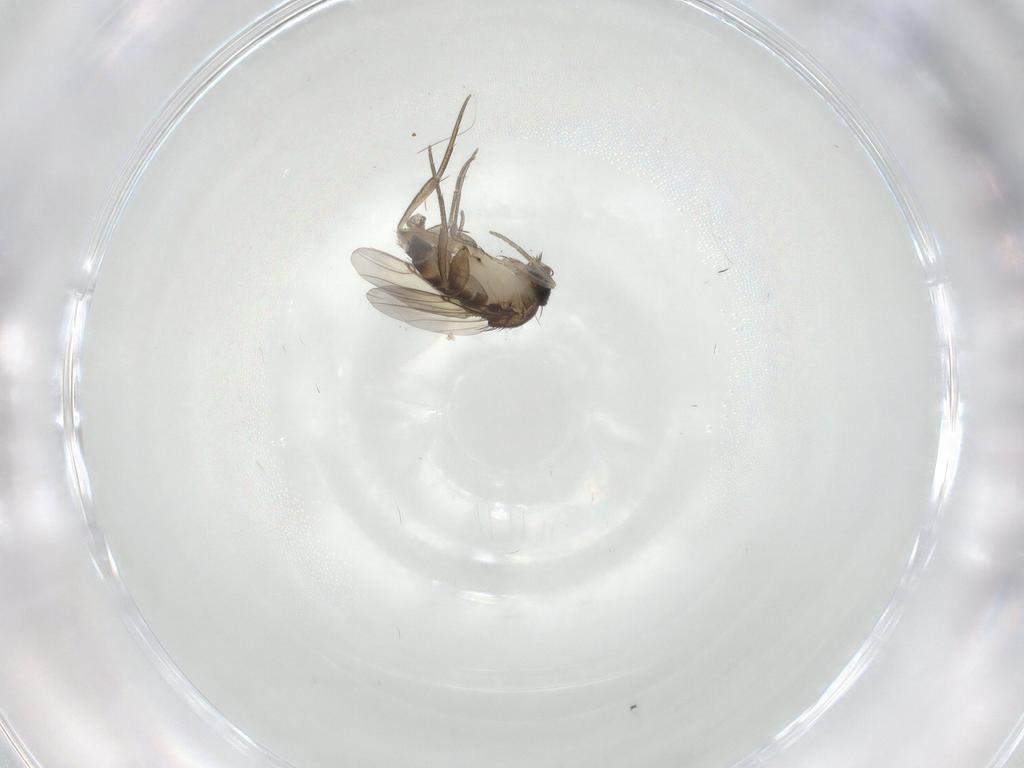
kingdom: Animalia
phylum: Arthropoda
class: Insecta
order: Diptera
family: Phoridae
